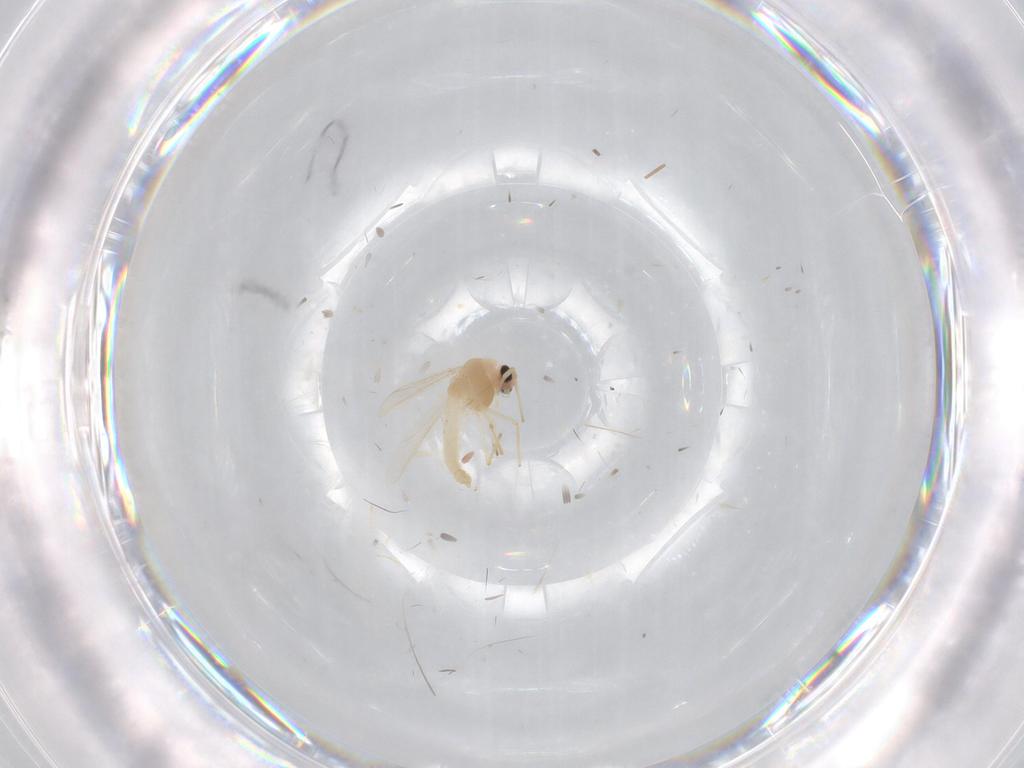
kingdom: Animalia
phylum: Arthropoda
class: Insecta
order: Diptera
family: Chironomidae
